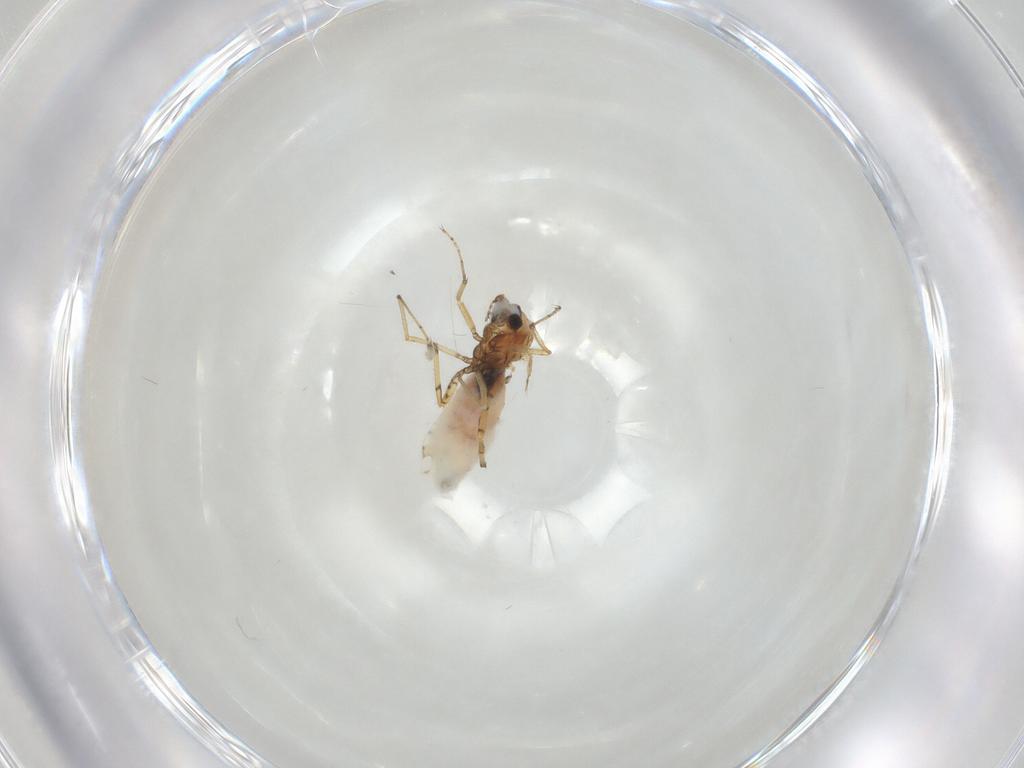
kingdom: Animalia
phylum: Arthropoda
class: Insecta
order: Diptera
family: Ceratopogonidae
